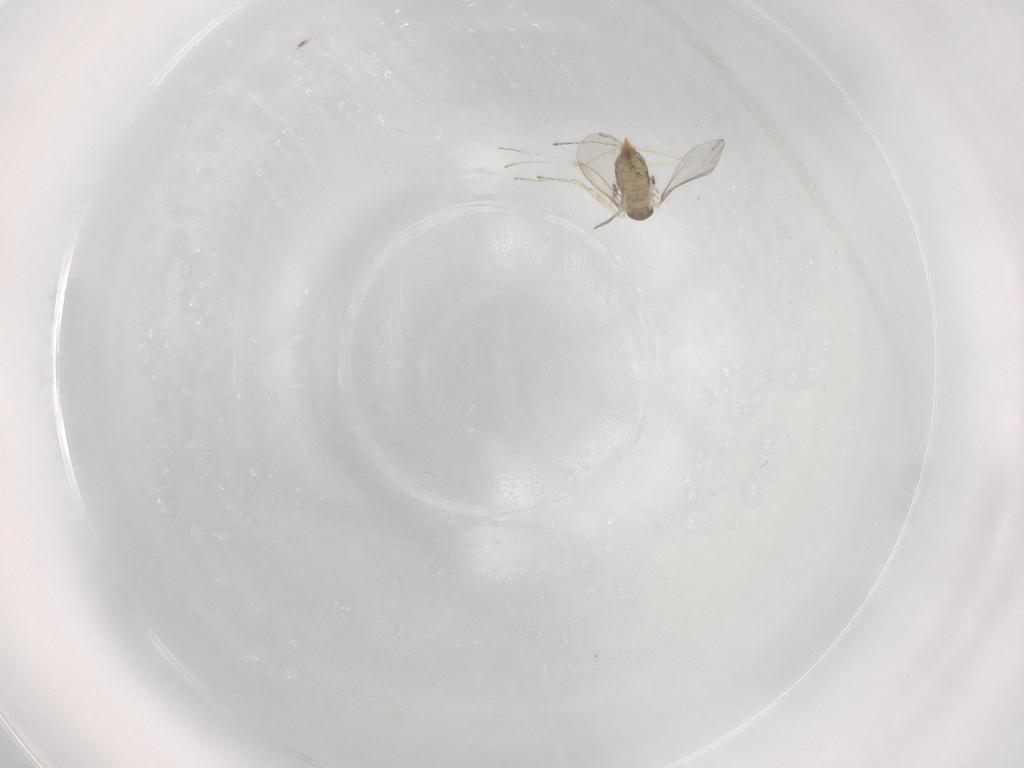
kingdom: Animalia
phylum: Arthropoda
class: Insecta
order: Diptera
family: Cecidomyiidae
